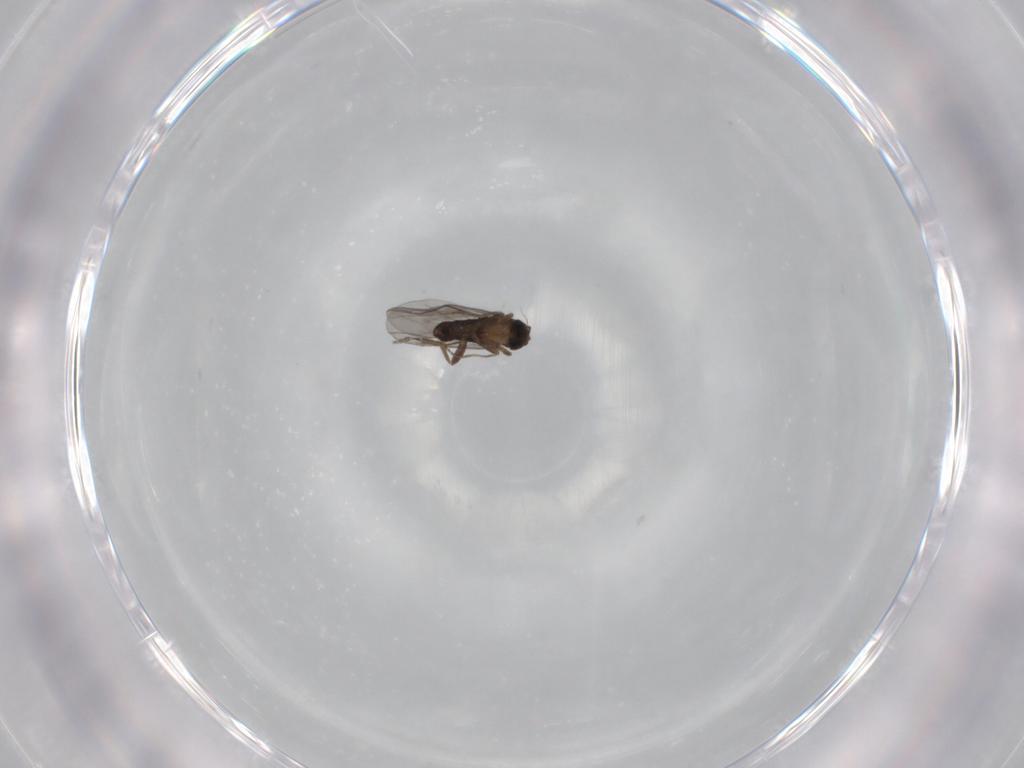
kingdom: Animalia
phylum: Arthropoda
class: Insecta
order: Diptera
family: Phoridae
